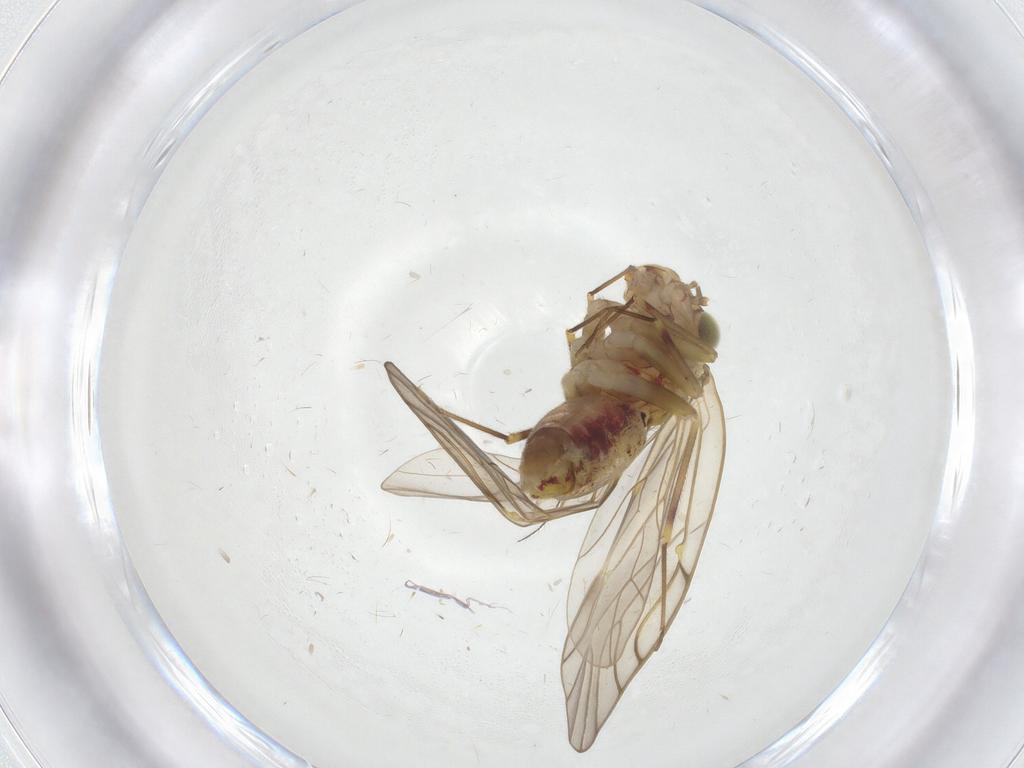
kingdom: Animalia
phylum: Arthropoda
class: Insecta
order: Psocodea
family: Philotarsidae
